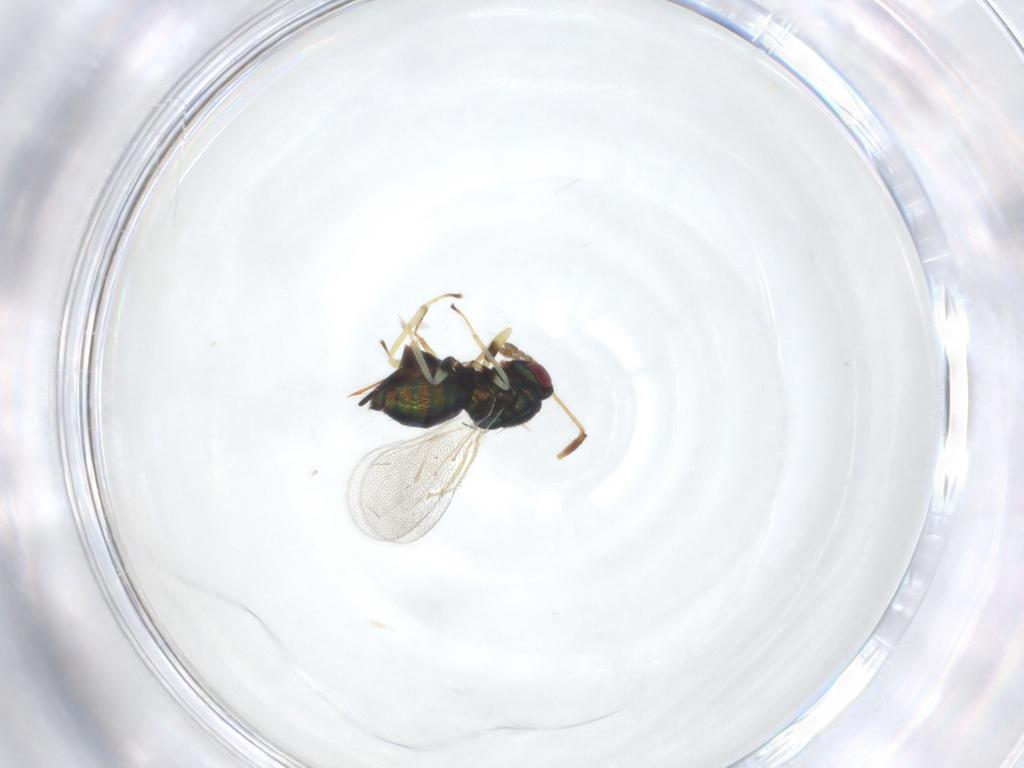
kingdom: Animalia
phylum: Arthropoda
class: Insecta
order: Hymenoptera
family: Eulophidae
